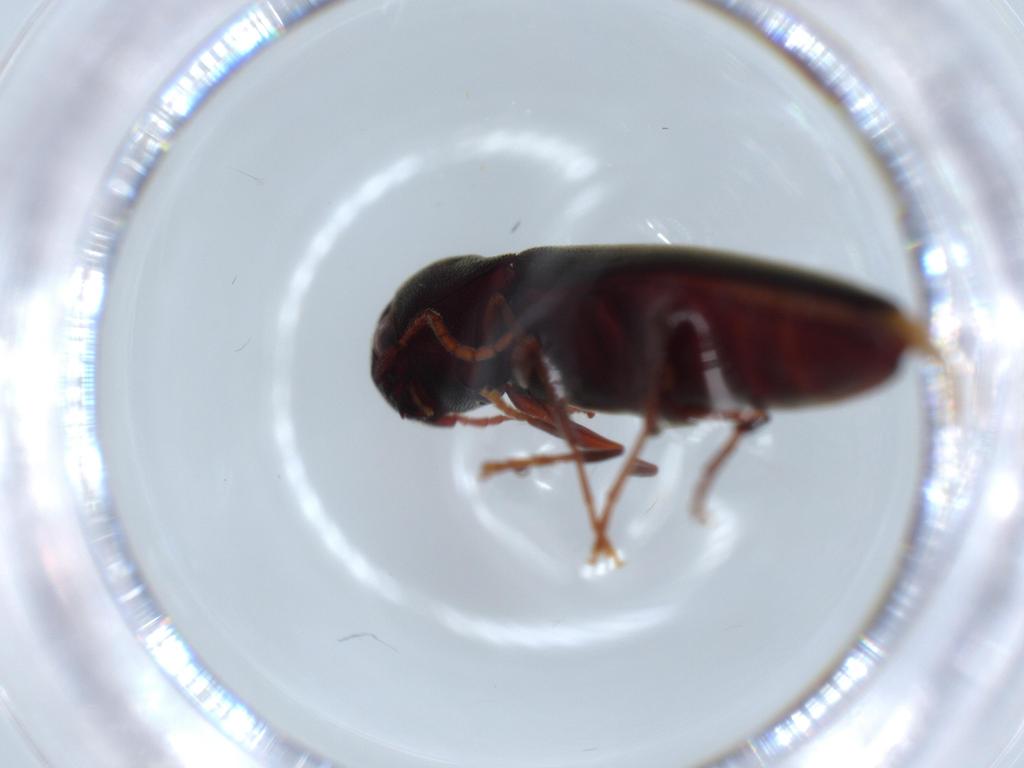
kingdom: Animalia
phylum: Arthropoda
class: Insecta
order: Coleoptera
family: Eucnemidae
